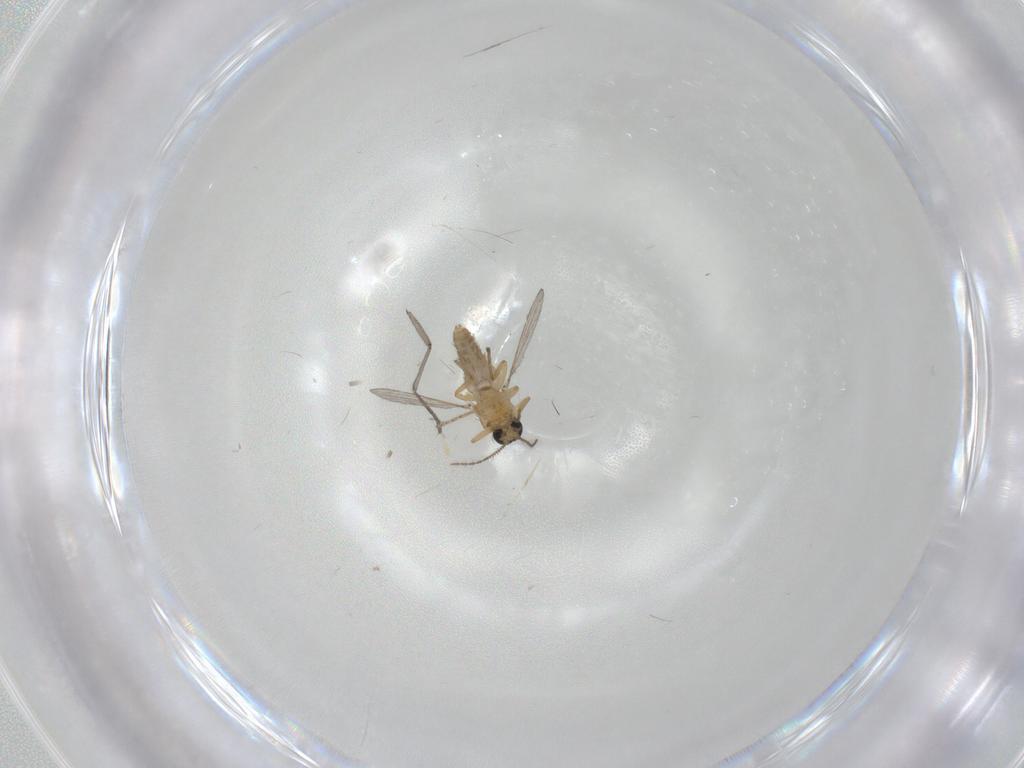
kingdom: Animalia
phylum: Arthropoda
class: Insecta
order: Diptera
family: Ceratopogonidae
